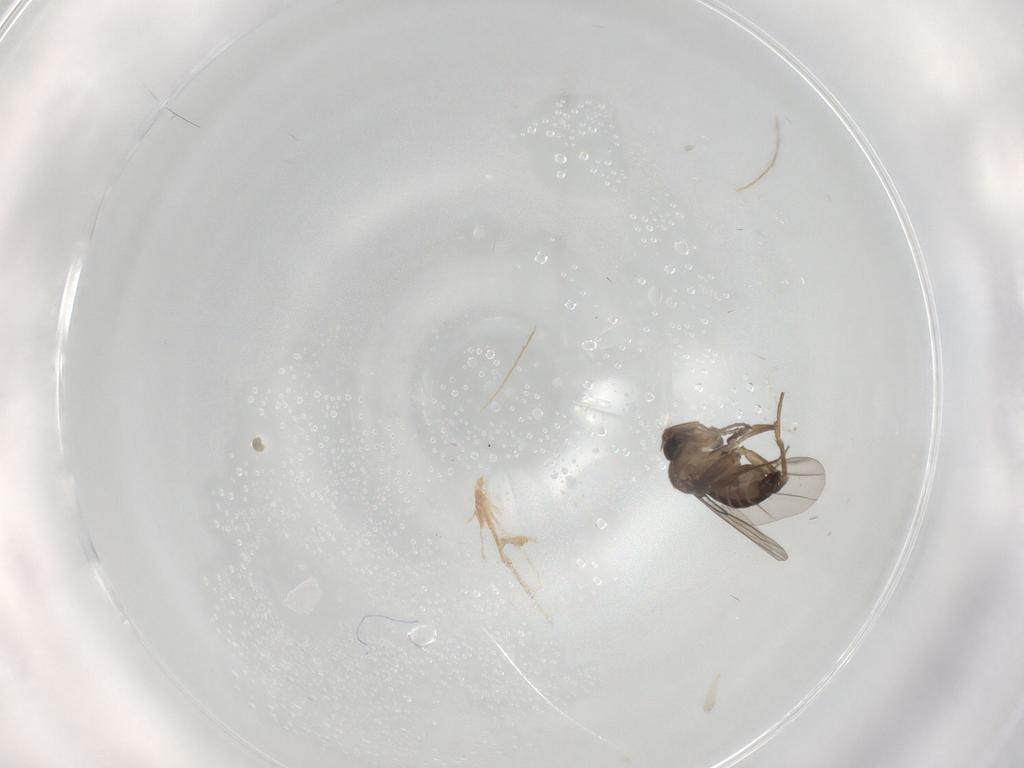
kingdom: Animalia
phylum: Arthropoda
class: Insecta
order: Diptera
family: Phoridae
